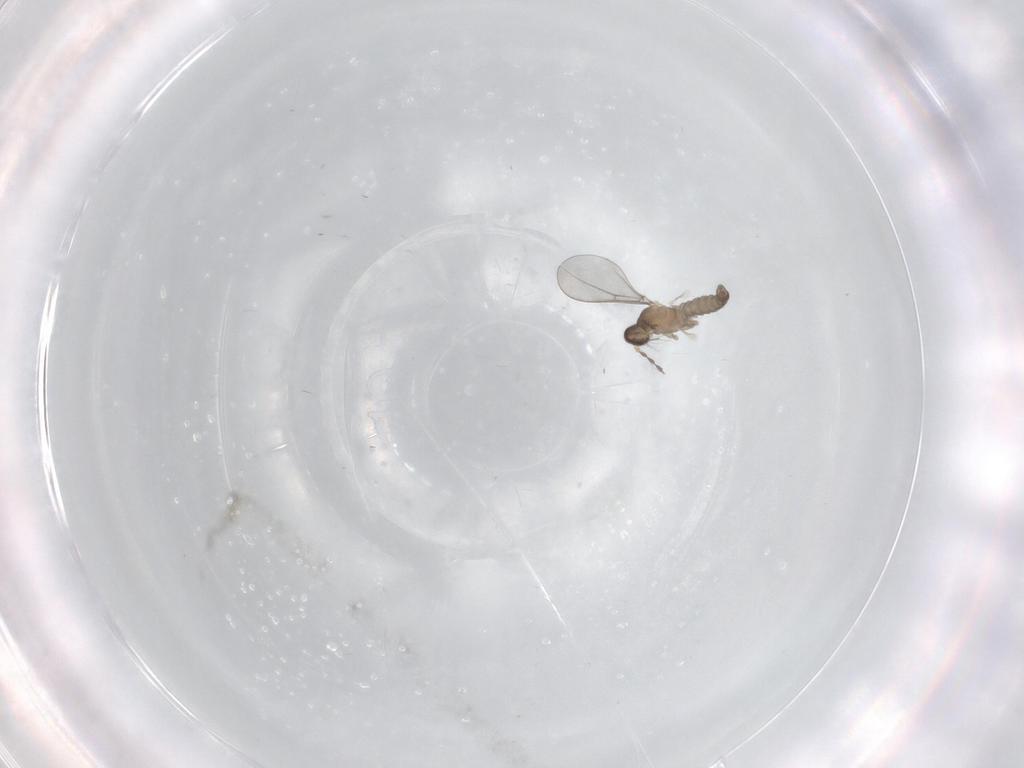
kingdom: Animalia
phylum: Arthropoda
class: Insecta
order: Diptera
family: Cecidomyiidae
